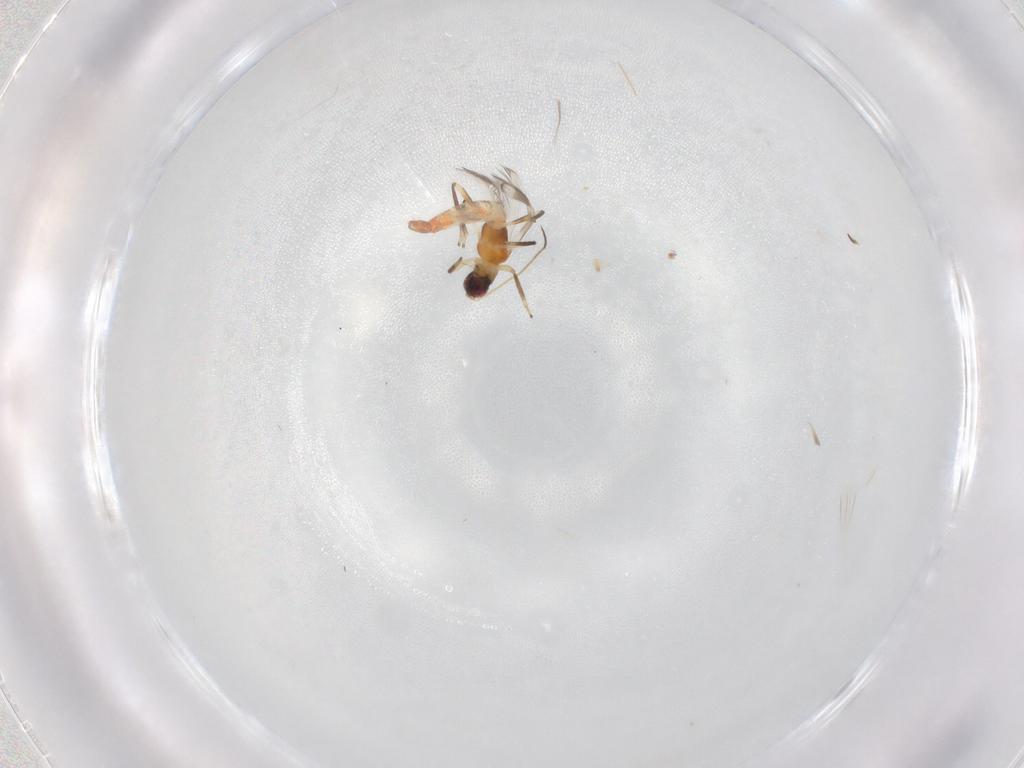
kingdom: Animalia
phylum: Arthropoda
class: Insecta
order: Thysanoptera
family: Aeolothripidae
